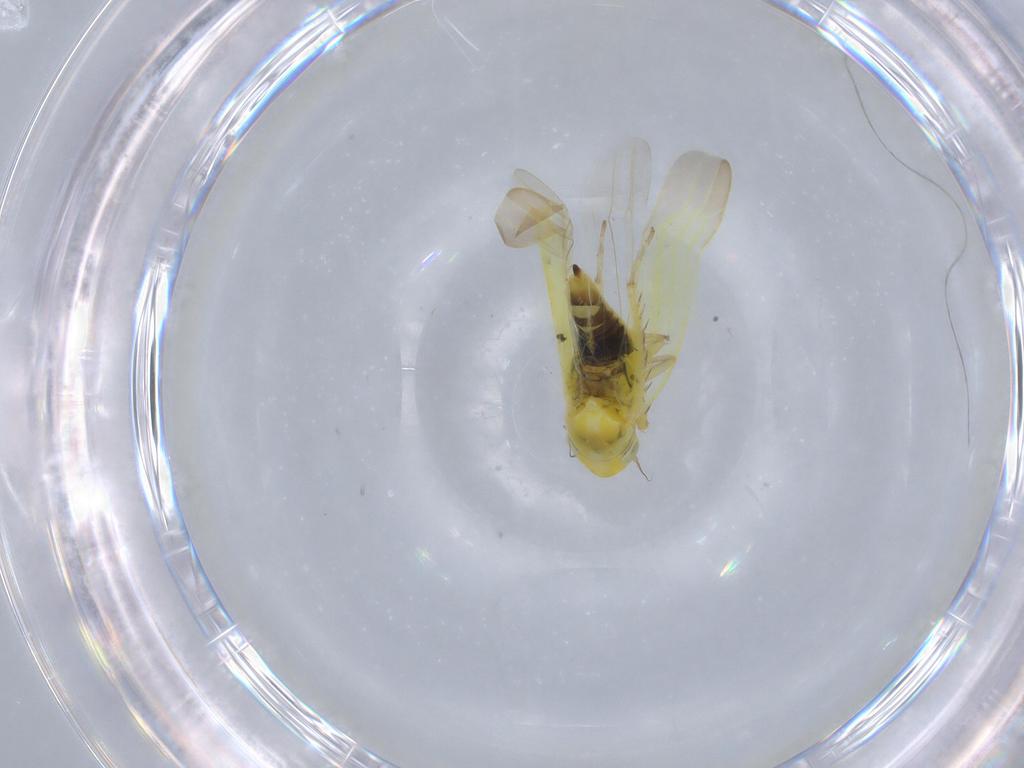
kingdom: Animalia
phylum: Arthropoda
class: Insecta
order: Hemiptera
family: Cicadellidae
